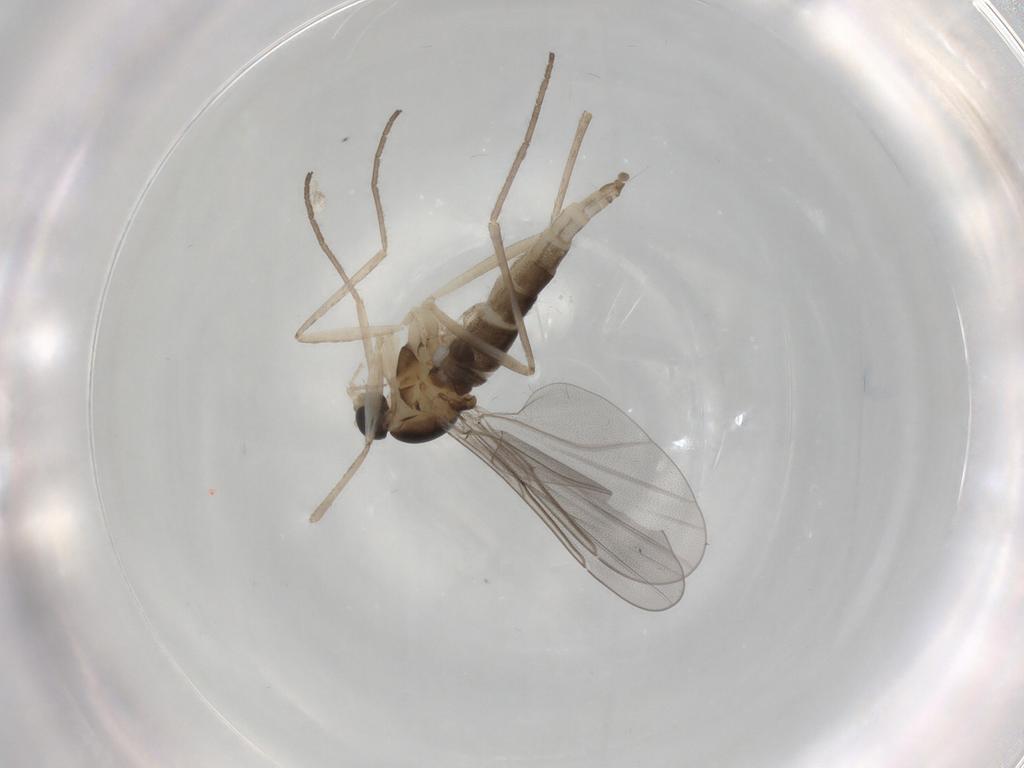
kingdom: Animalia
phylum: Arthropoda
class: Insecta
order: Diptera
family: Cecidomyiidae
